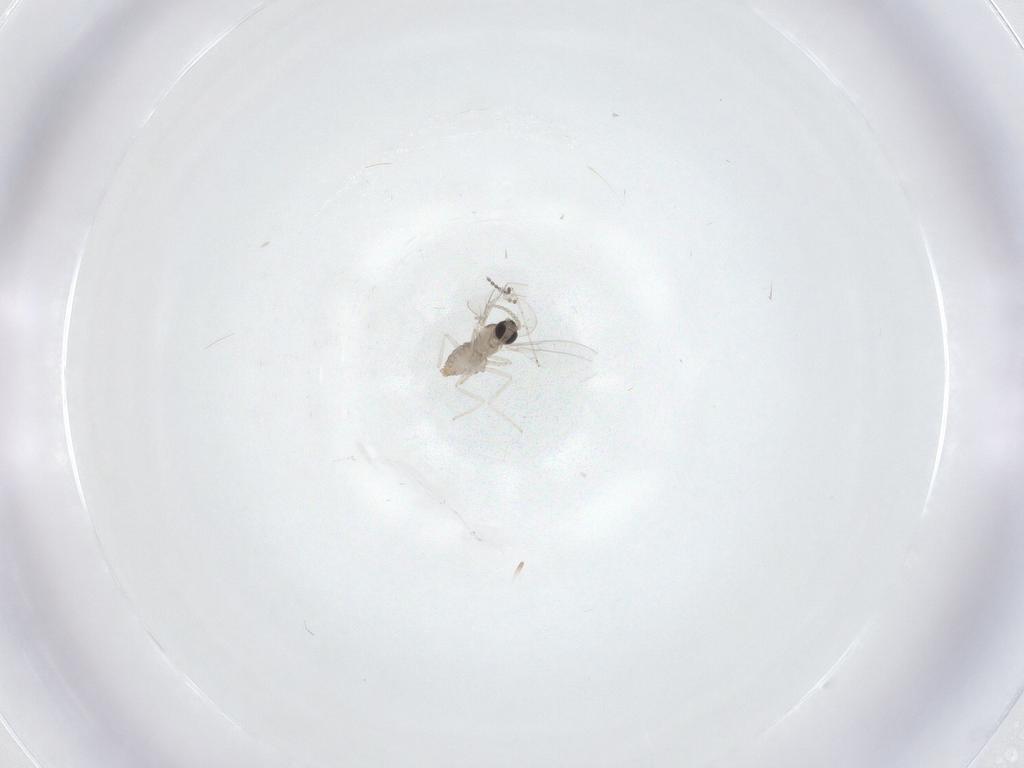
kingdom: Animalia
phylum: Arthropoda
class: Insecta
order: Diptera
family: Cecidomyiidae
